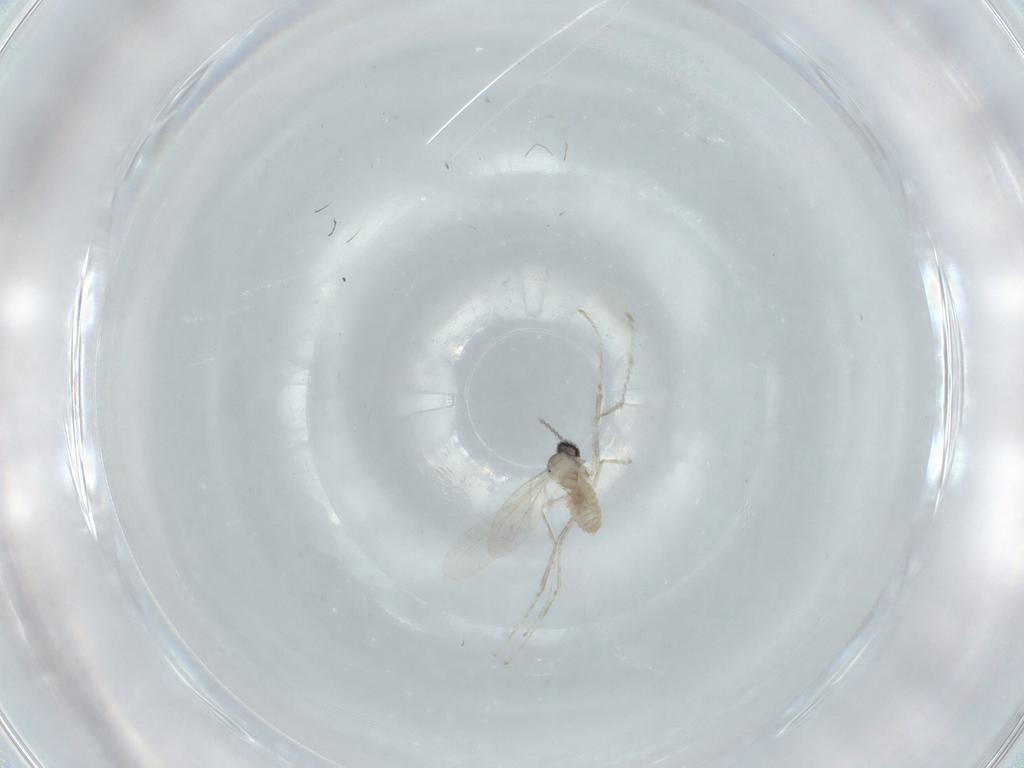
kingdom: Animalia
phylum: Arthropoda
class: Insecta
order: Diptera
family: Cecidomyiidae
